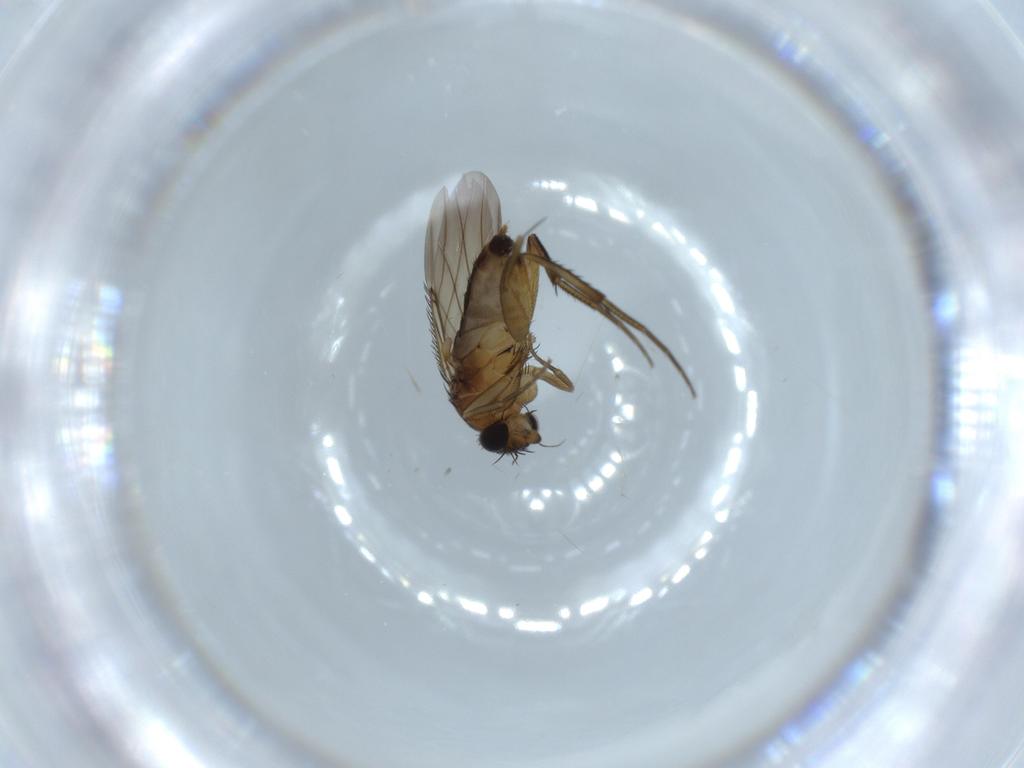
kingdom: Animalia
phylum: Arthropoda
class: Insecta
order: Diptera
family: Phoridae
